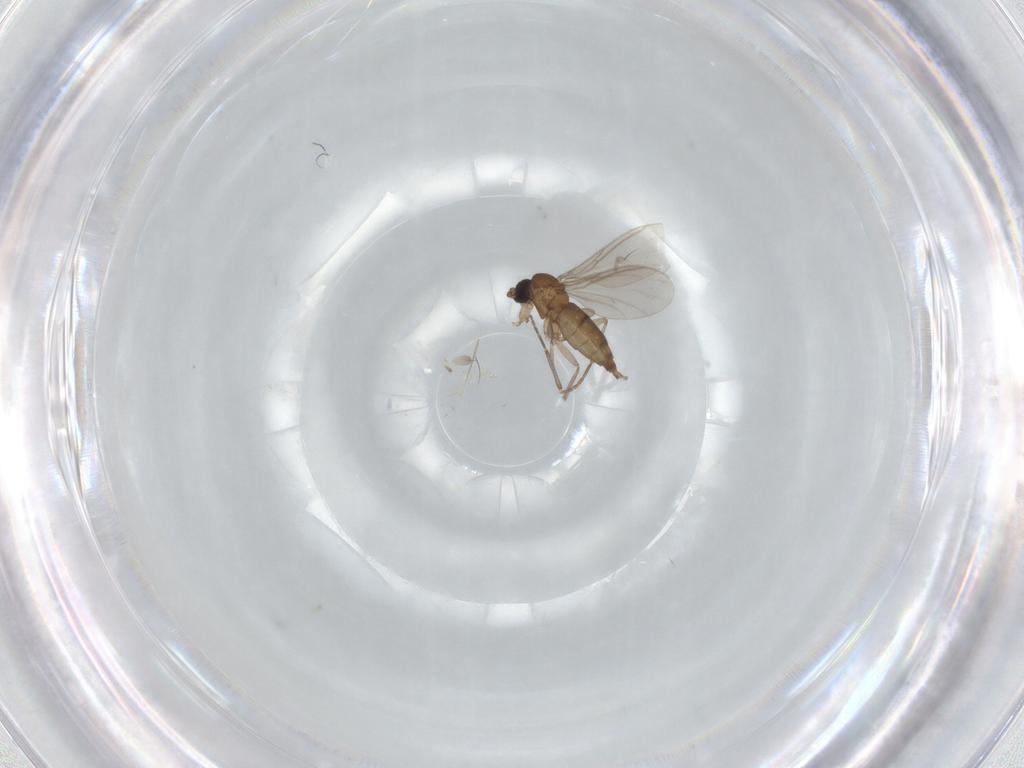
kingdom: Animalia
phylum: Arthropoda
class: Insecta
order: Diptera
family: Sciaridae
